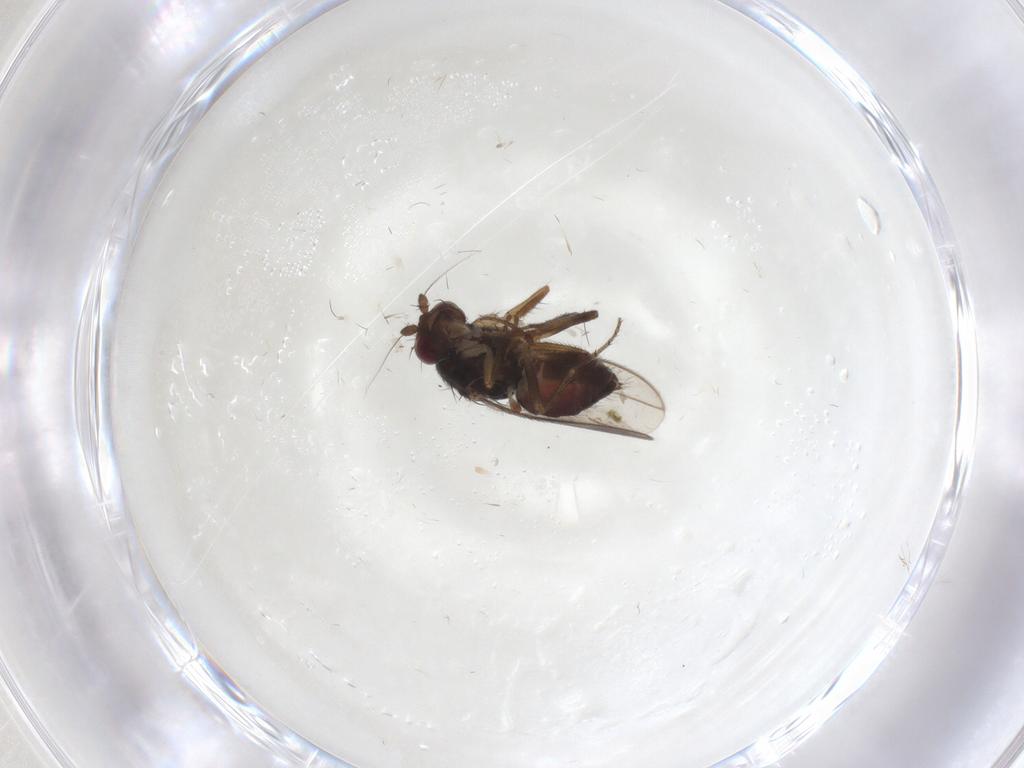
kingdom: Animalia
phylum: Arthropoda
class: Insecta
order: Diptera
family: Sphaeroceridae
